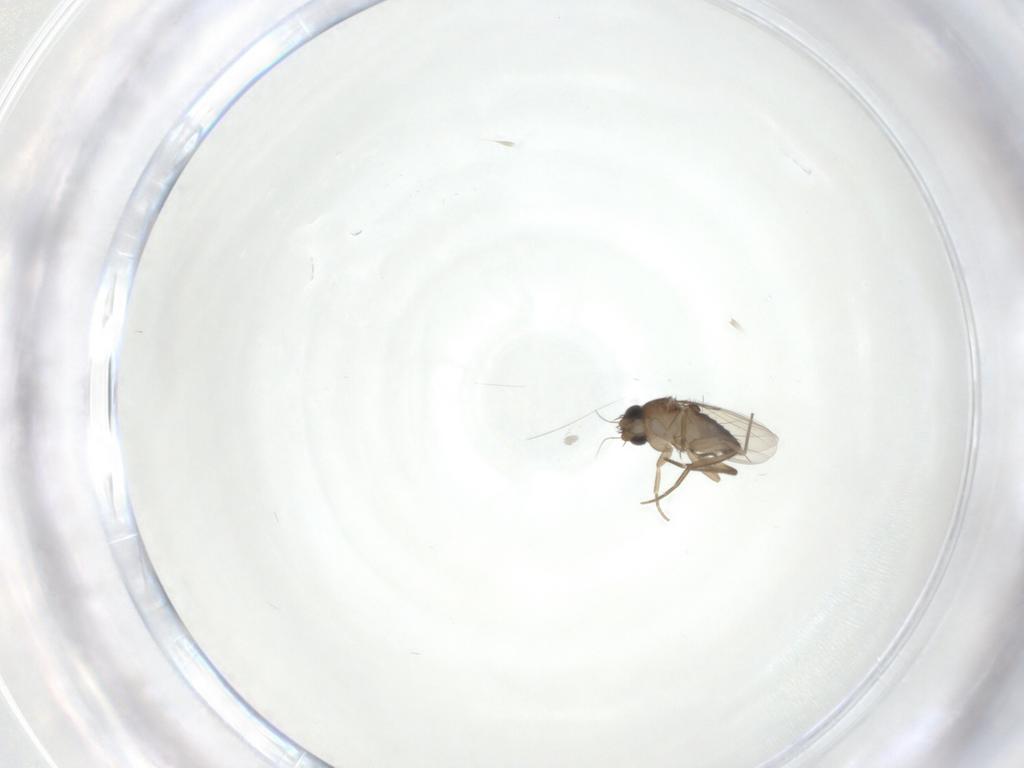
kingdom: Animalia
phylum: Arthropoda
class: Insecta
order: Diptera
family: Phoridae
